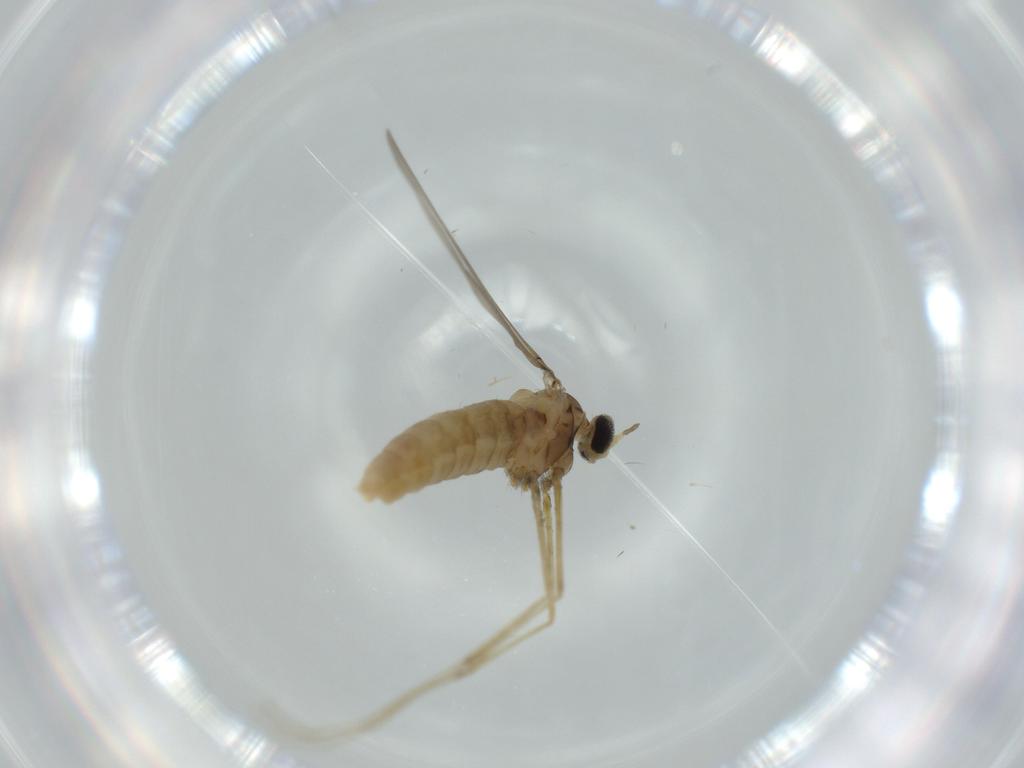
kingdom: Animalia
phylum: Arthropoda
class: Insecta
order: Diptera
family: Cecidomyiidae
